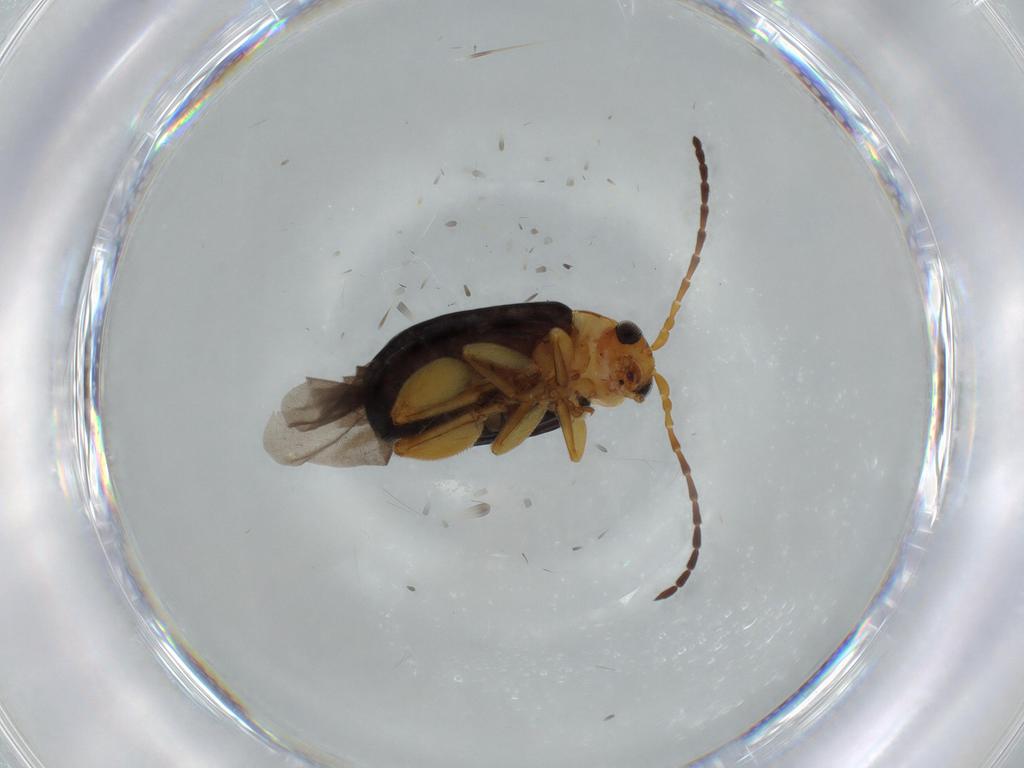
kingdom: Animalia
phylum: Arthropoda
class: Insecta
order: Coleoptera
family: Chrysomelidae
